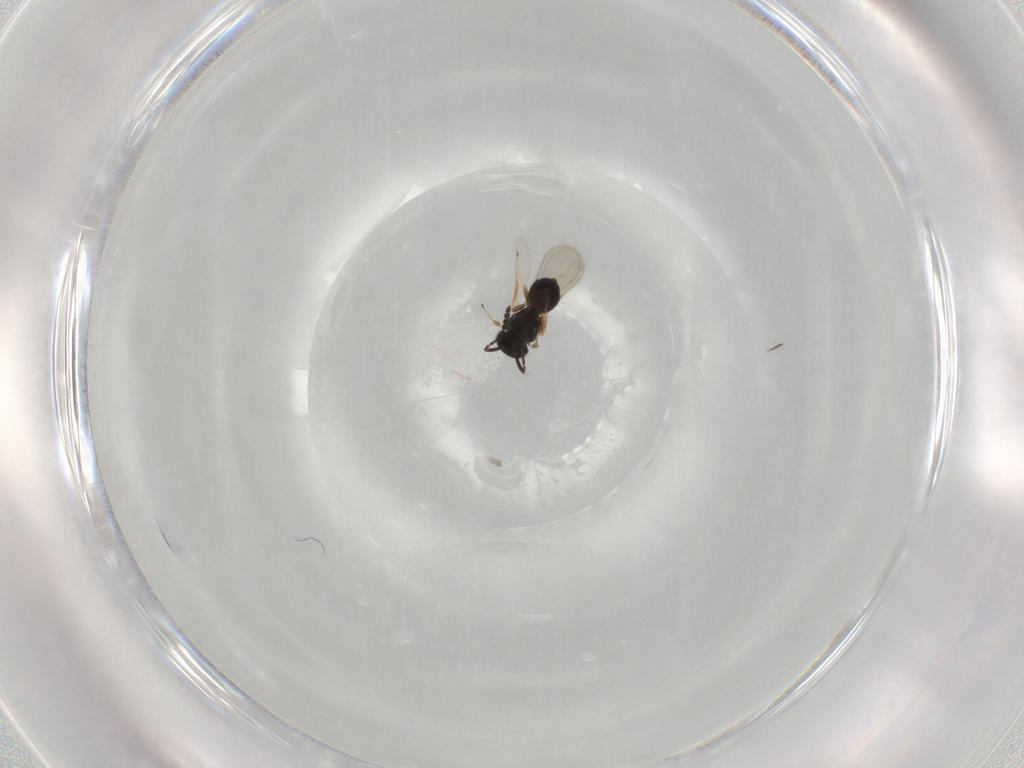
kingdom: Animalia
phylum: Arthropoda
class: Insecta
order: Hymenoptera
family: Scelionidae
